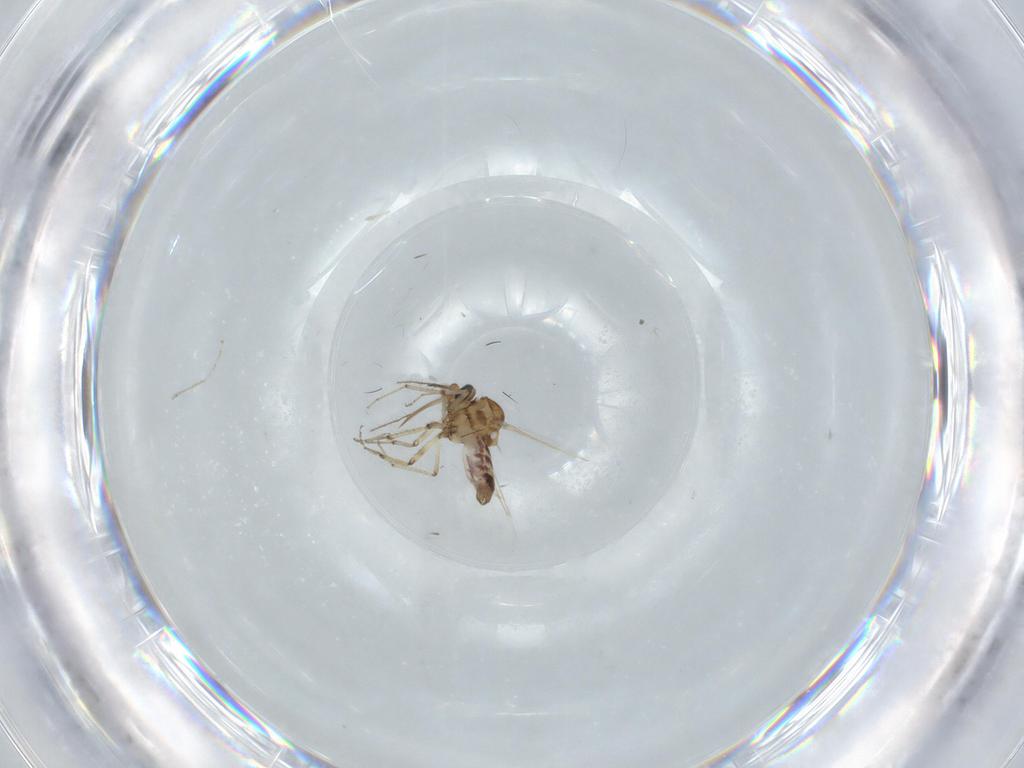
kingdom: Animalia
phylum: Arthropoda
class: Insecta
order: Diptera
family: Ceratopogonidae
